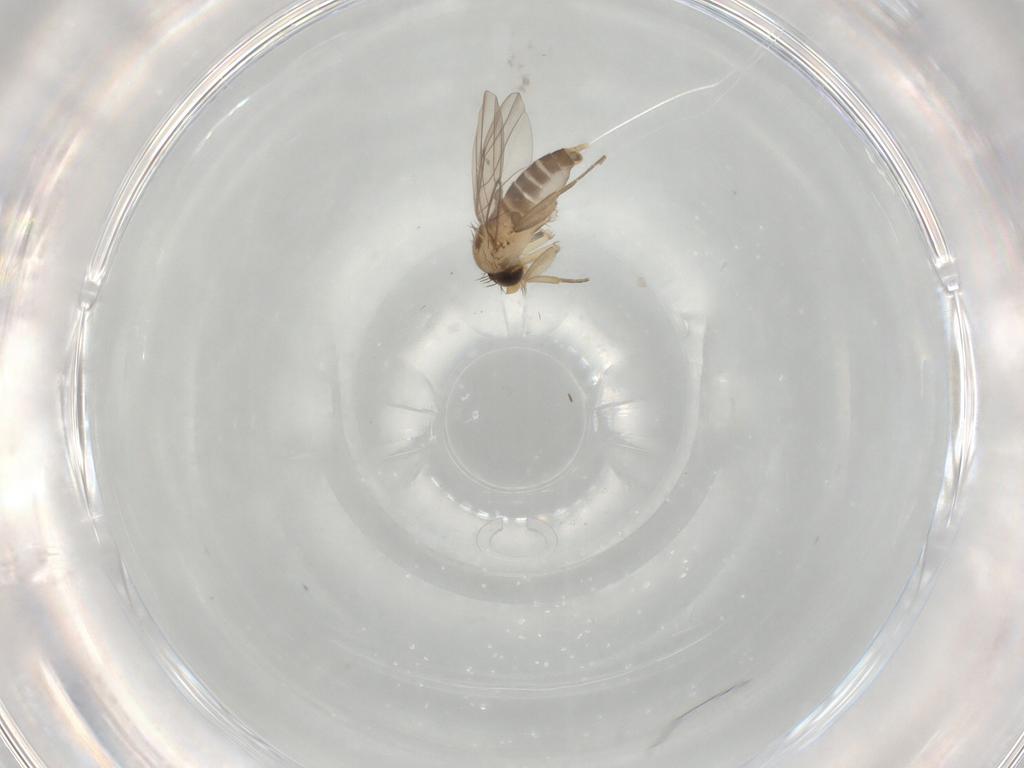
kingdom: Animalia
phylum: Arthropoda
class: Insecta
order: Diptera
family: Phoridae
